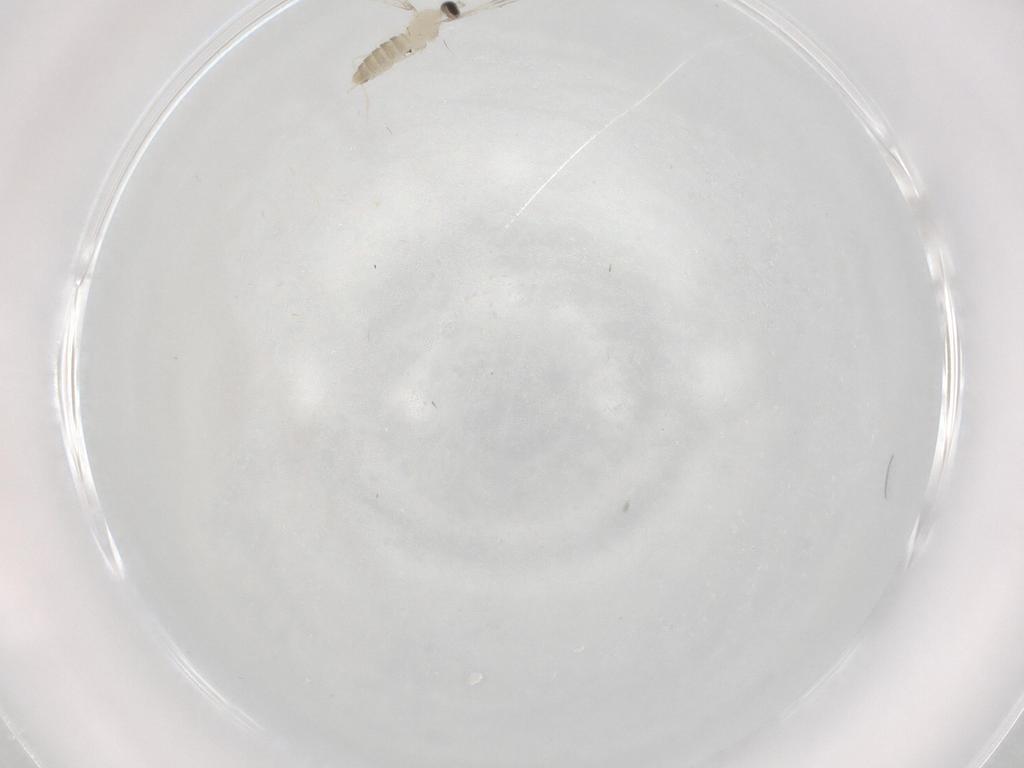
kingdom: Animalia
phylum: Arthropoda
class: Insecta
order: Diptera
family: Cecidomyiidae
